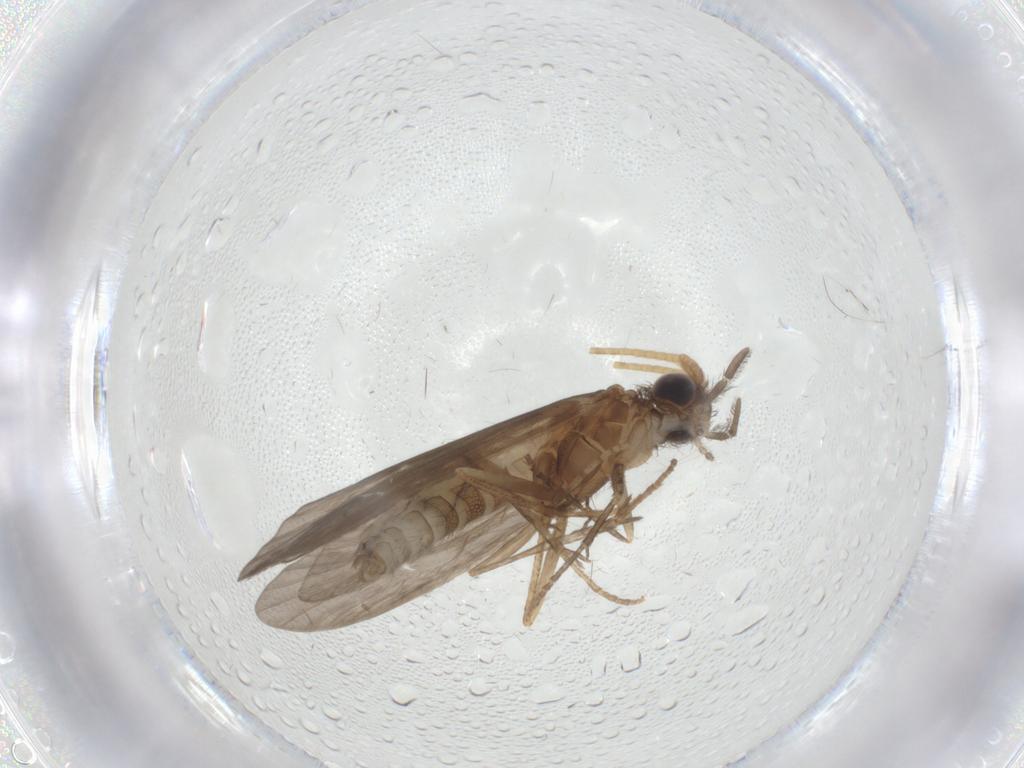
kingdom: Animalia
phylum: Arthropoda
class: Insecta
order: Trichoptera
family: Helicopsychidae
